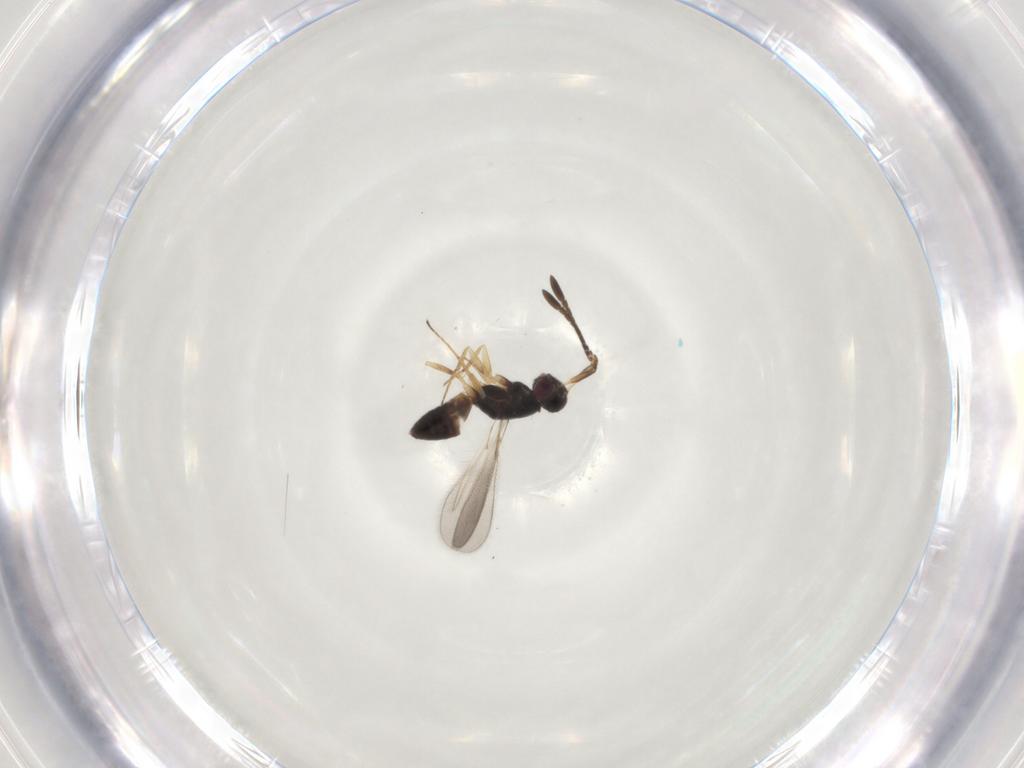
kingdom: Animalia
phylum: Arthropoda
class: Insecta
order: Hymenoptera
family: Mymaridae
